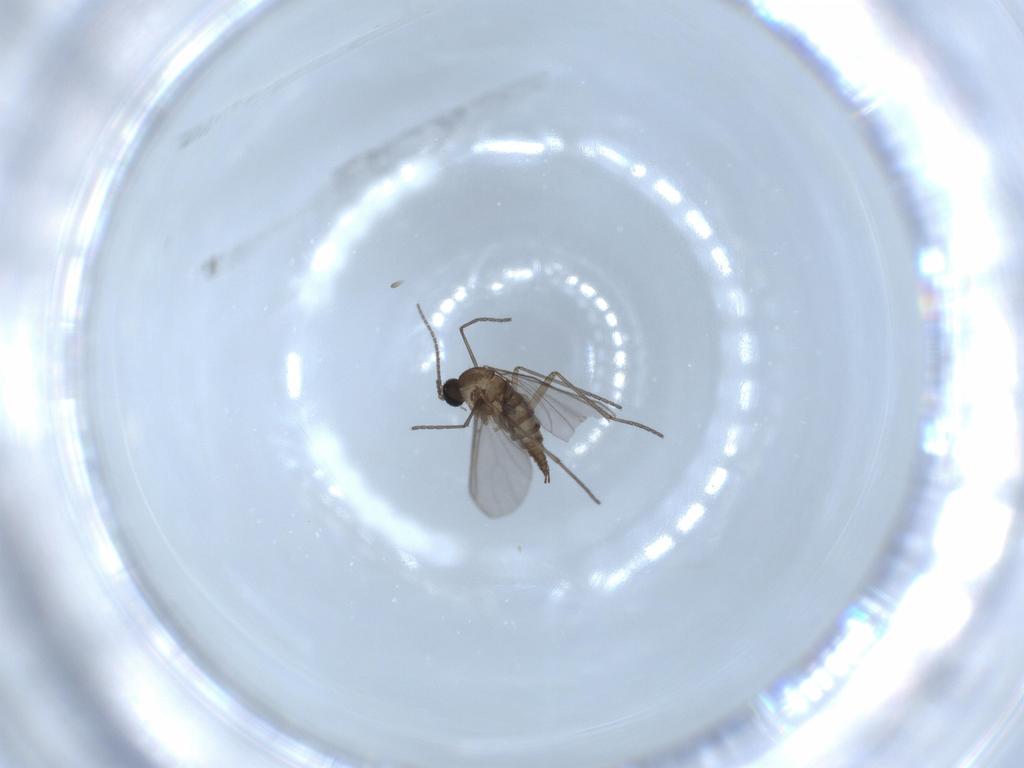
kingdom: Animalia
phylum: Arthropoda
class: Insecta
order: Diptera
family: Sciaridae
